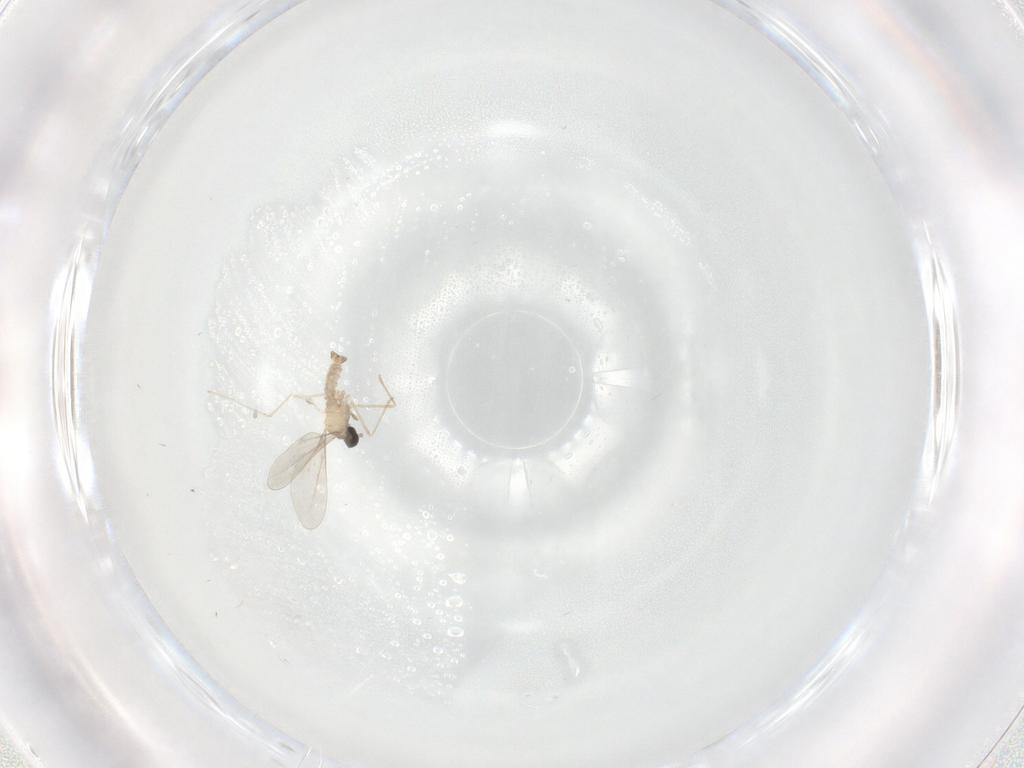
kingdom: Animalia
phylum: Arthropoda
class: Insecta
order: Diptera
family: Cecidomyiidae
